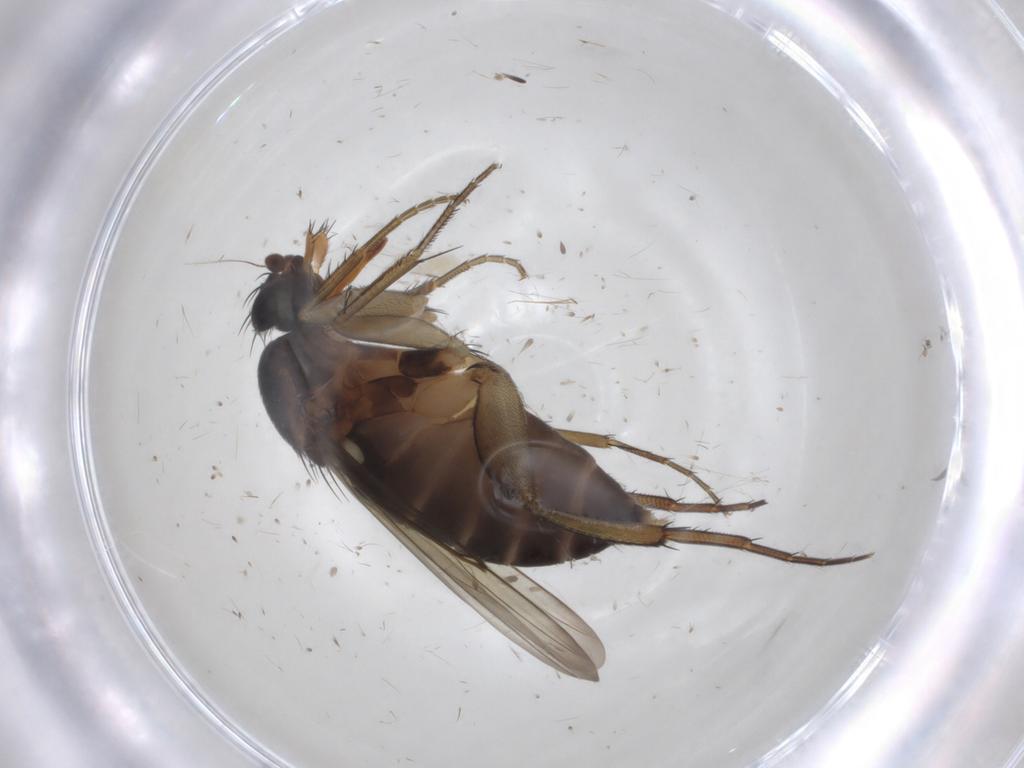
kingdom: Animalia
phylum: Arthropoda
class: Insecta
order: Diptera
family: Phoridae
